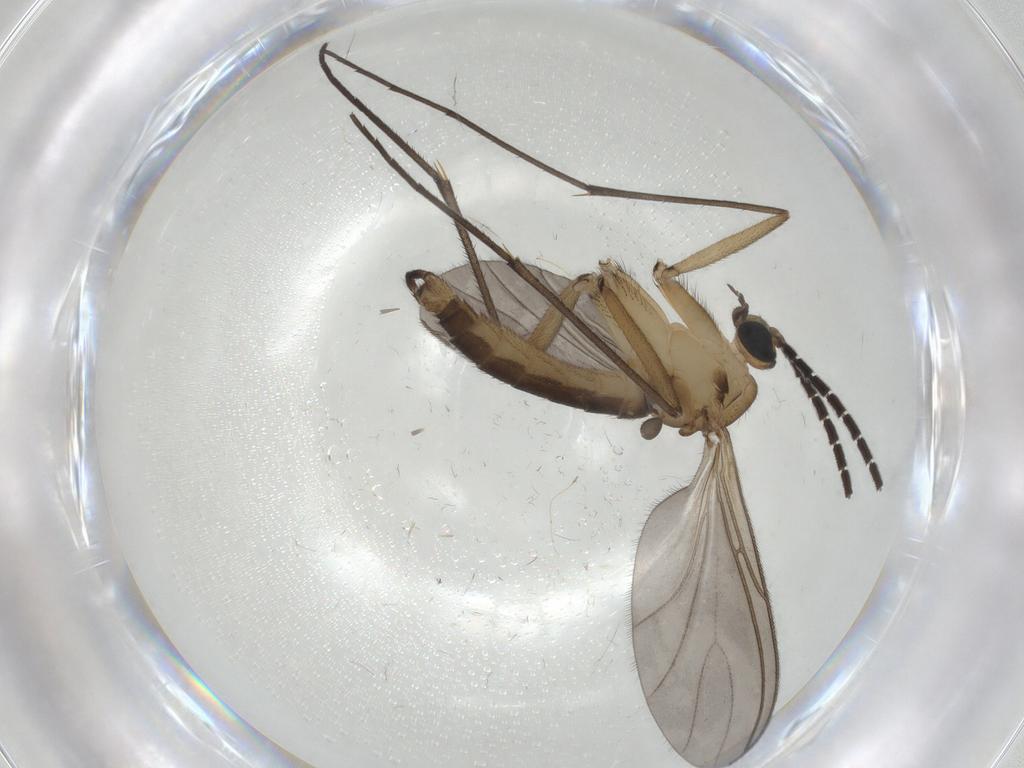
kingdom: Animalia
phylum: Arthropoda
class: Insecta
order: Diptera
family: Sciaridae
